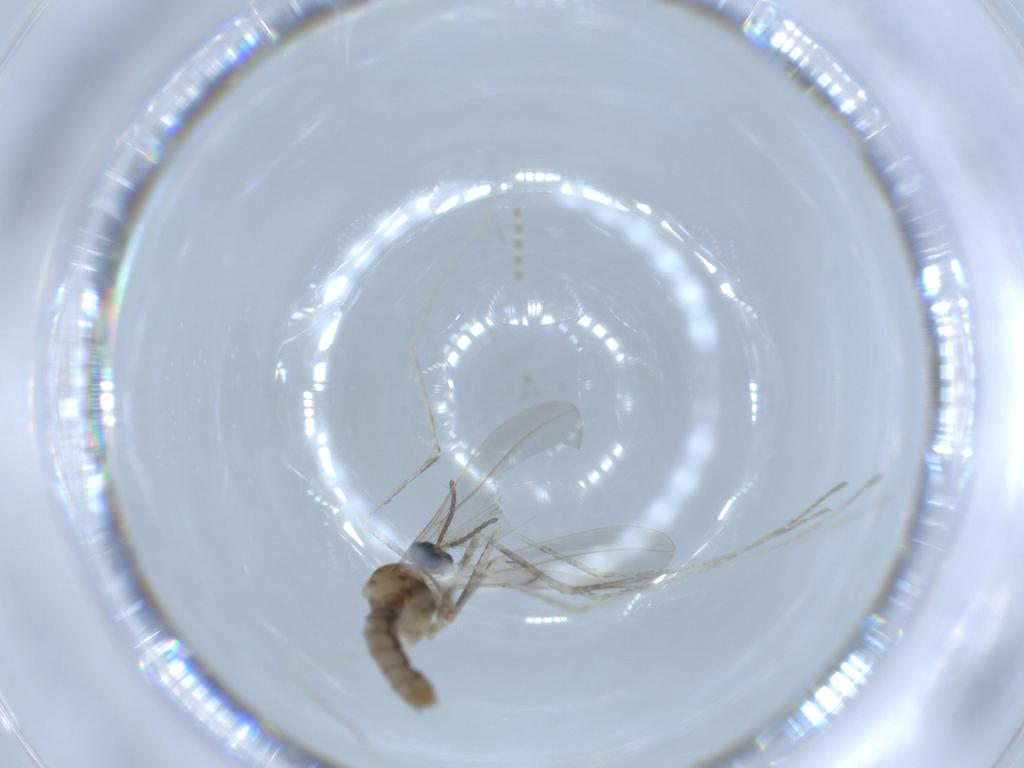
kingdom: Animalia
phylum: Arthropoda
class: Insecta
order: Diptera
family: Cecidomyiidae
